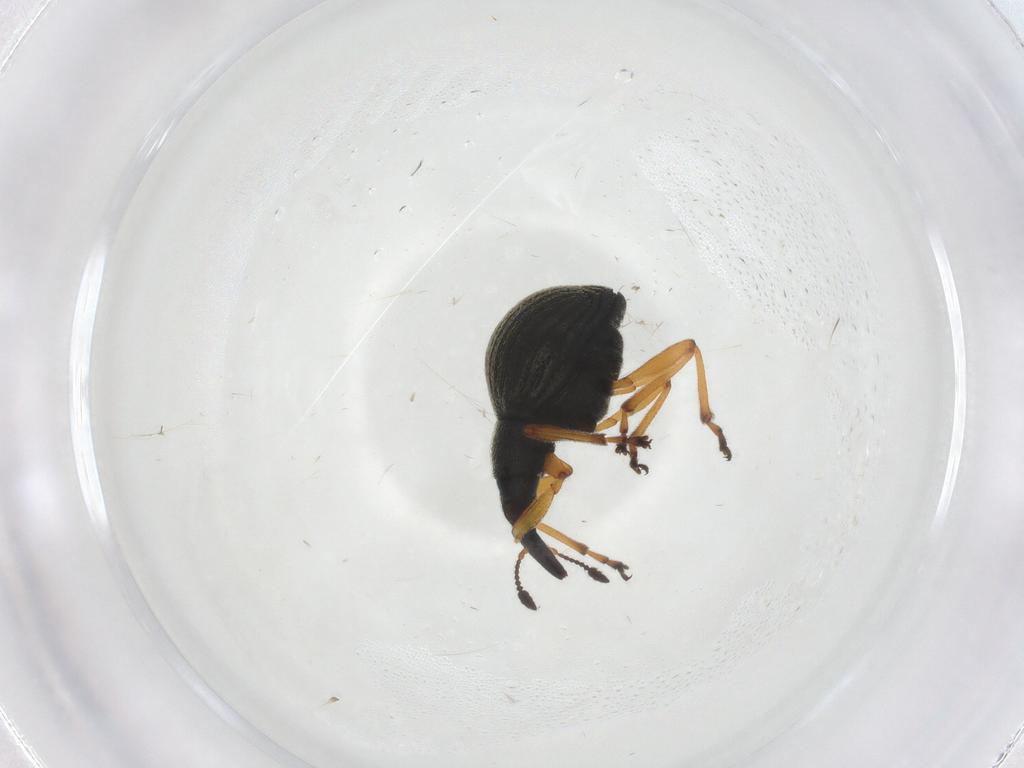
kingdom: Animalia
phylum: Arthropoda
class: Insecta
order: Coleoptera
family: Brentidae
